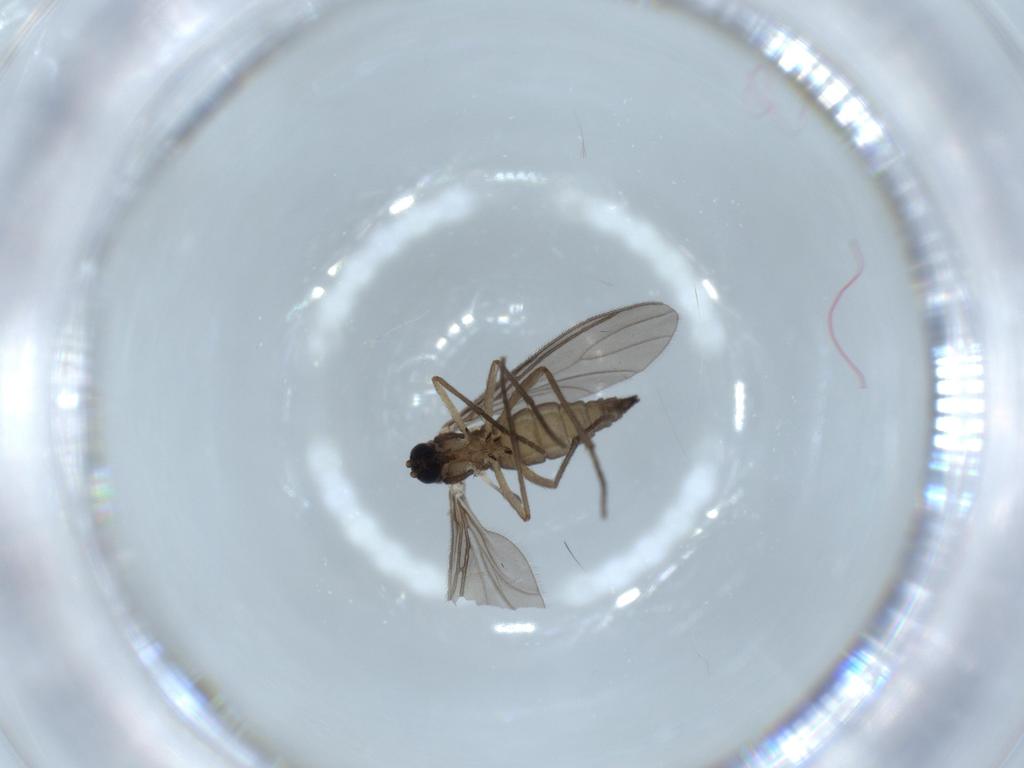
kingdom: Animalia
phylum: Arthropoda
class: Insecta
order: Diptera
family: Sciaridae
